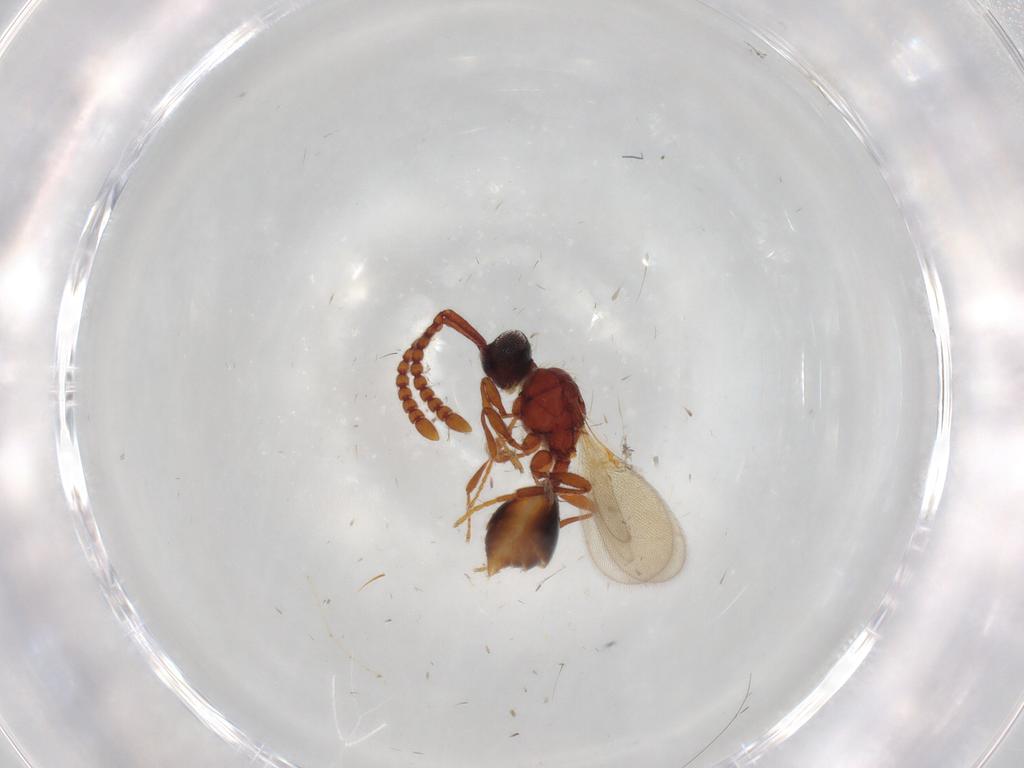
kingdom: Animalia
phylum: Arthropoda
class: Insecta
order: Hymenoptera
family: Diapriidae
